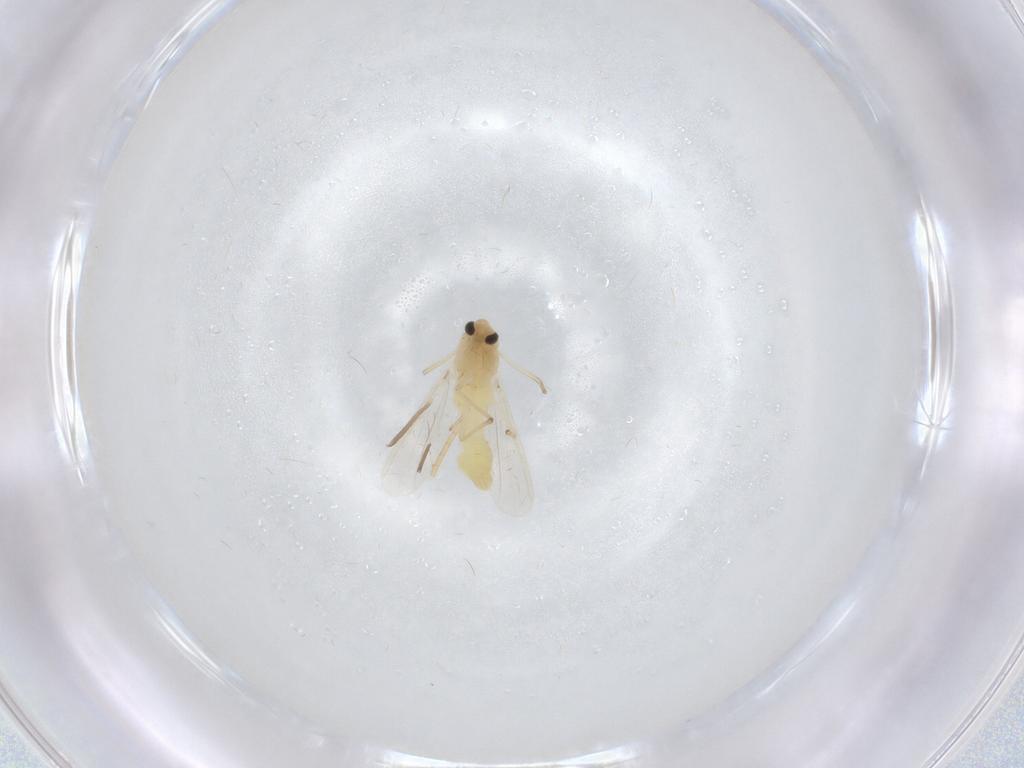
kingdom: Animalia
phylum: Arthropoda
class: Insecta
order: Diptera
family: Chironomidae
